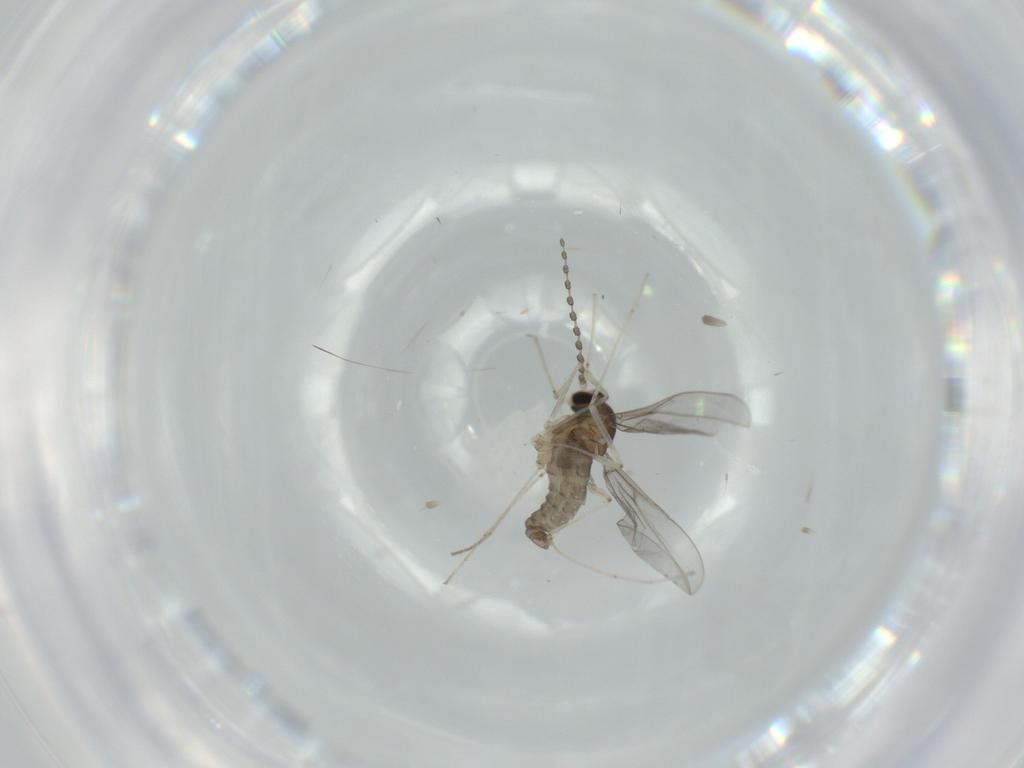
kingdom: Animalia
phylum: Arthropoda
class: Insecta
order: Diptera
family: Cecidomyiidae
